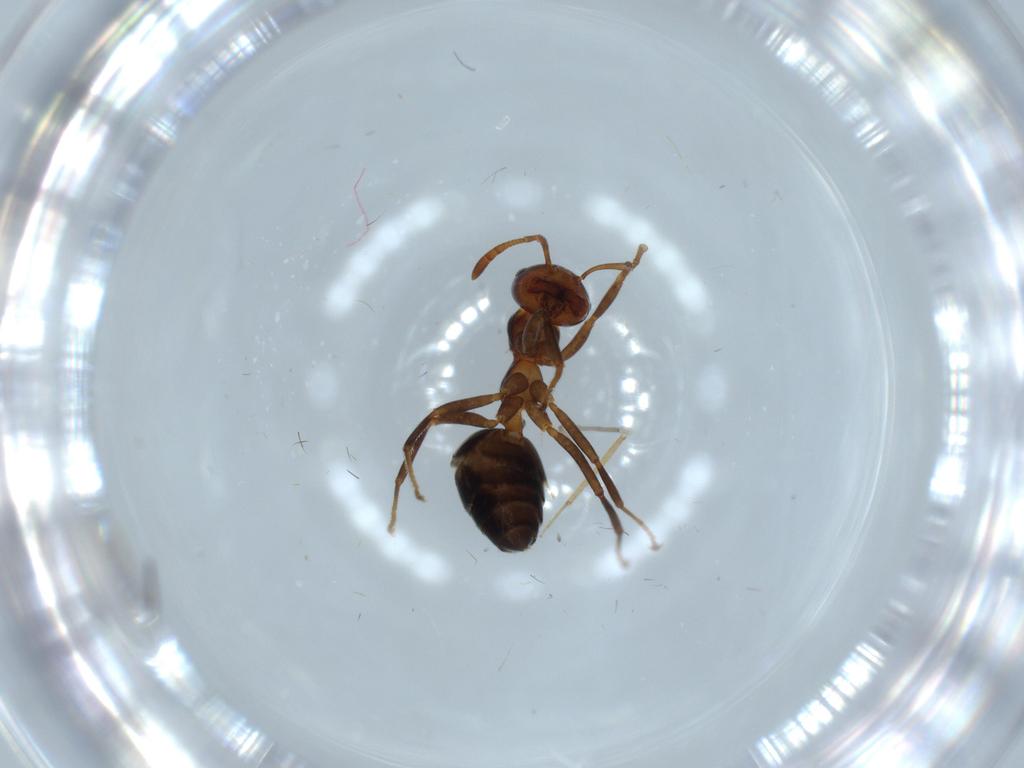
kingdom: Animalia
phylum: Arthropoda
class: Insecta
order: Hymenoptera
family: Formicidae
